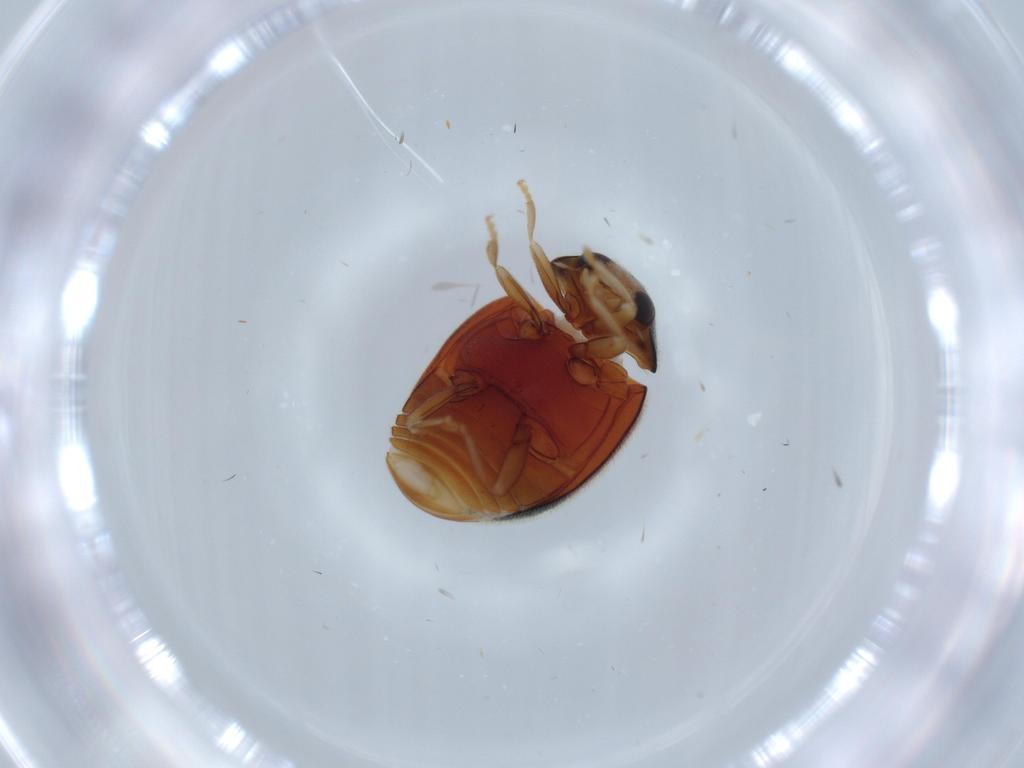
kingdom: Animalia
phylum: Arthropoda
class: Insecta
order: Coleoptera
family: Coccinellidae
